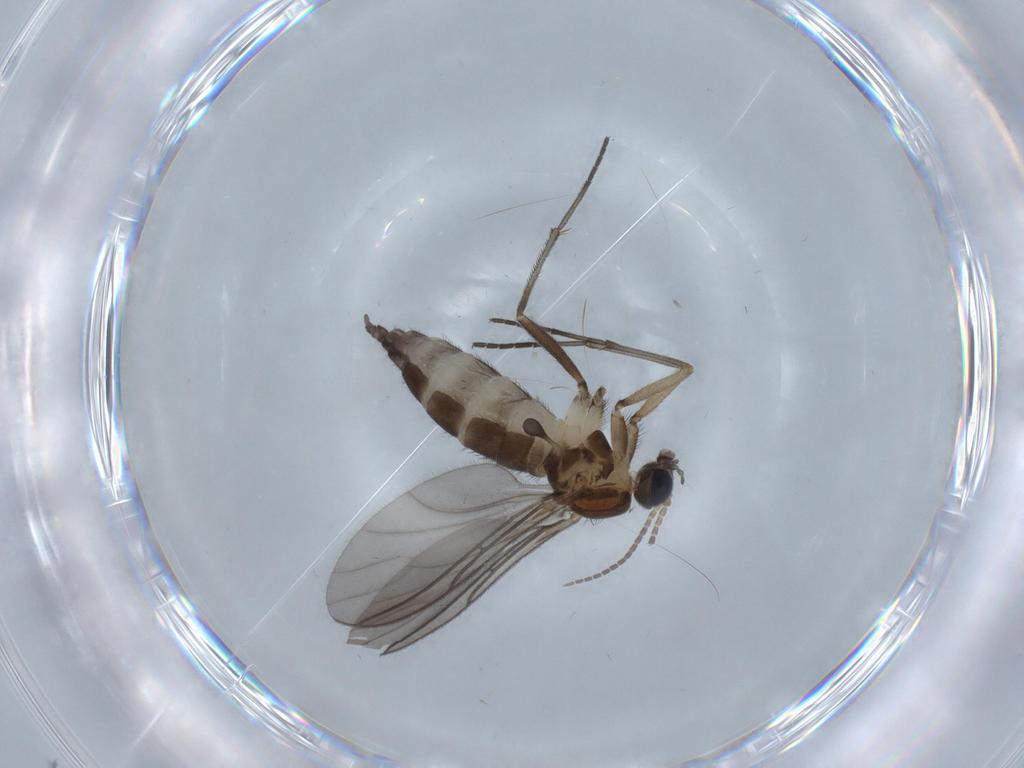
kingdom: Animalia
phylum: Arthropoda
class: Insecta
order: Diptera
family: Sciaridae
